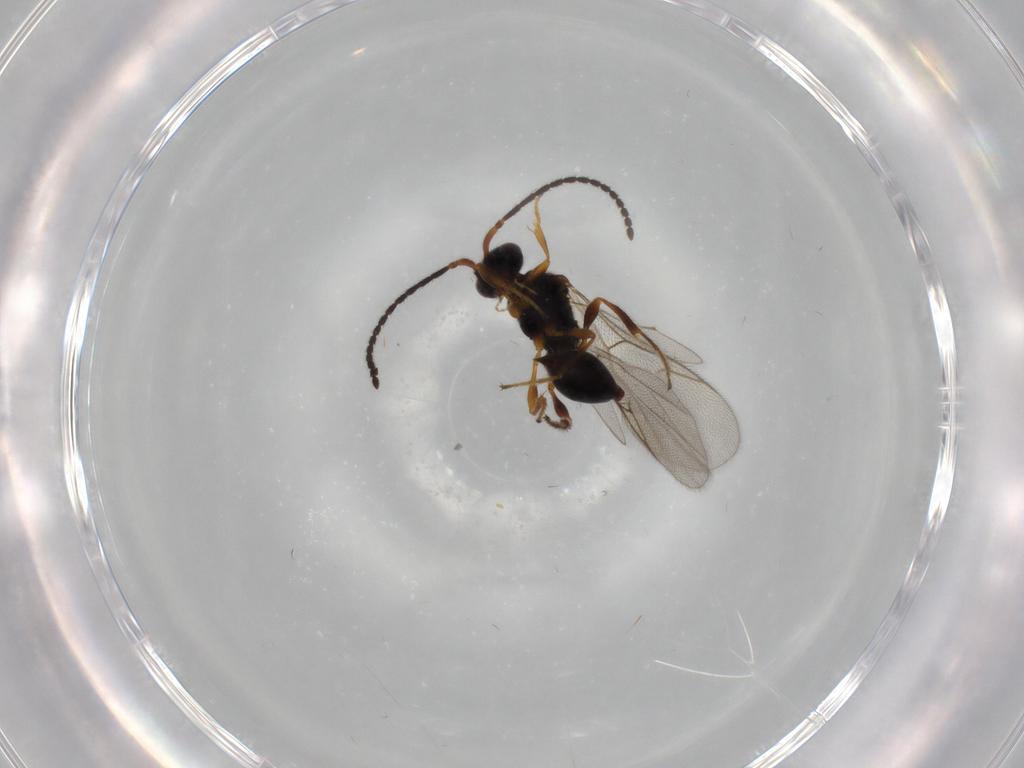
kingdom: Animalia
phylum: Arthropoda
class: Insecta
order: Hymenoptera
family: Diapriidae
